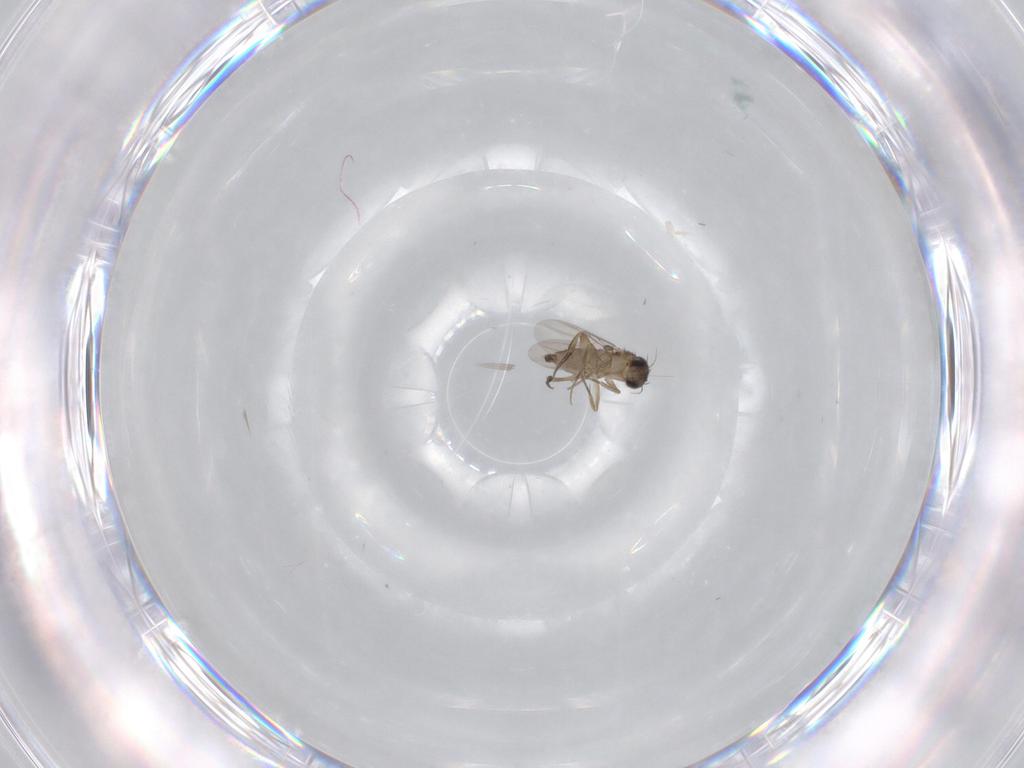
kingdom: Animalia
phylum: Arthropoda
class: Insecta
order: Diptera
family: Phoridae
